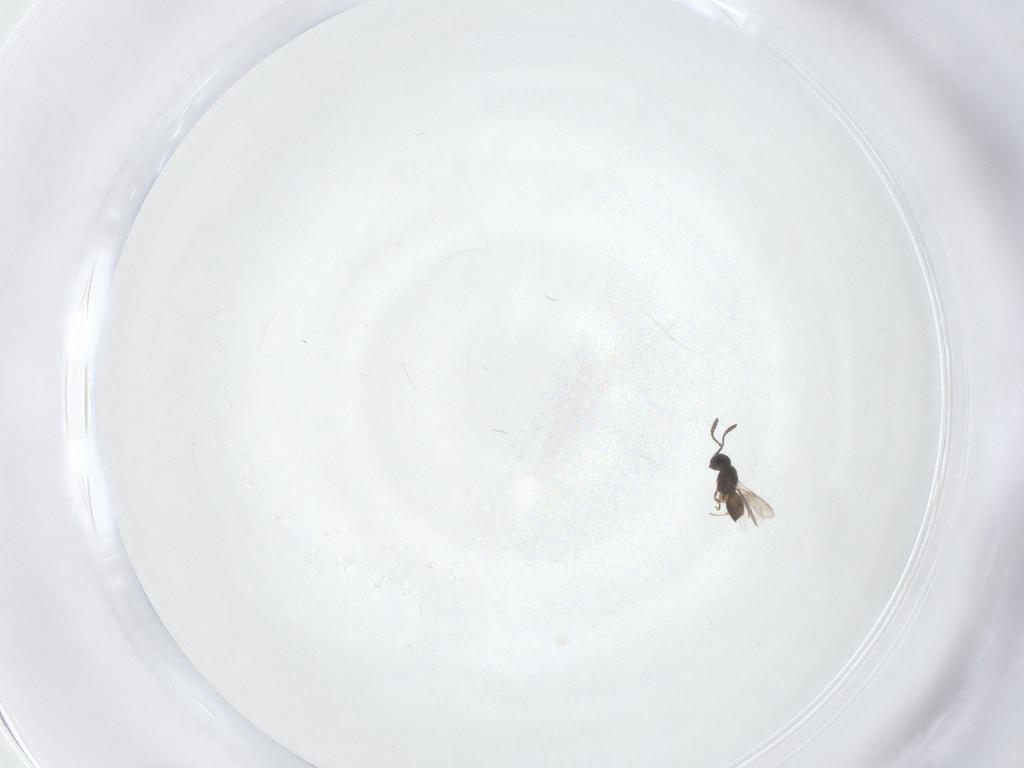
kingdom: Animalia
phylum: Arthropoda
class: Insecta
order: Hymenoptera
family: Scelionidae
